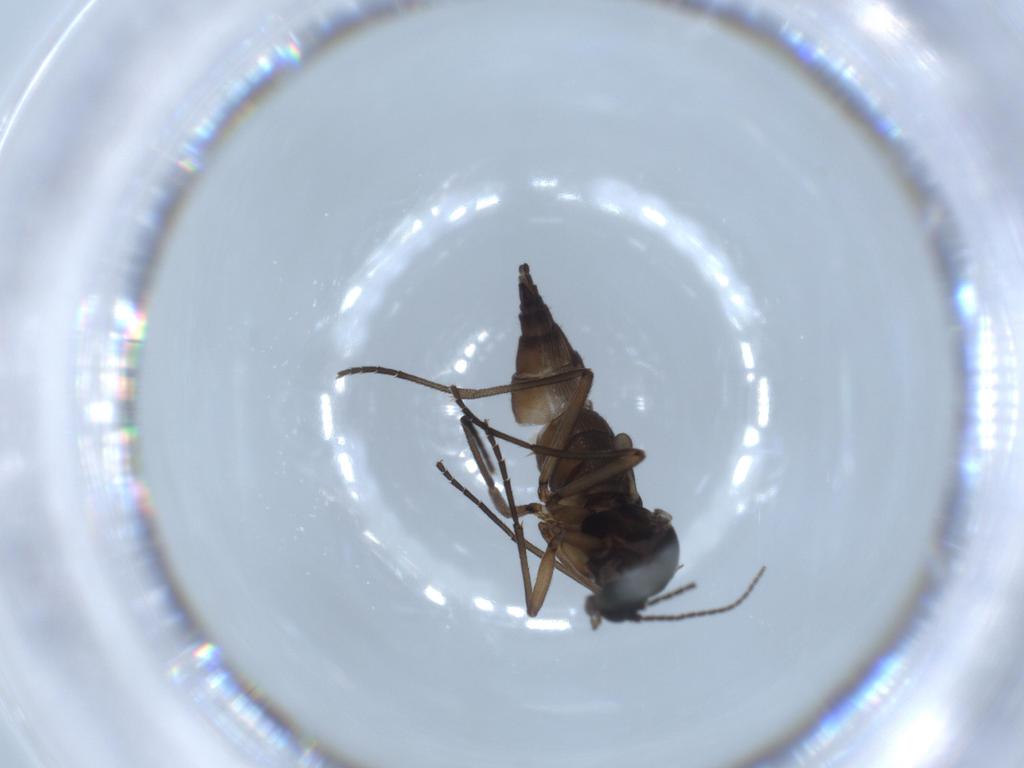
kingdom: Animalia
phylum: Arthropoda
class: Insecta
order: Diptera
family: Sciaridae
